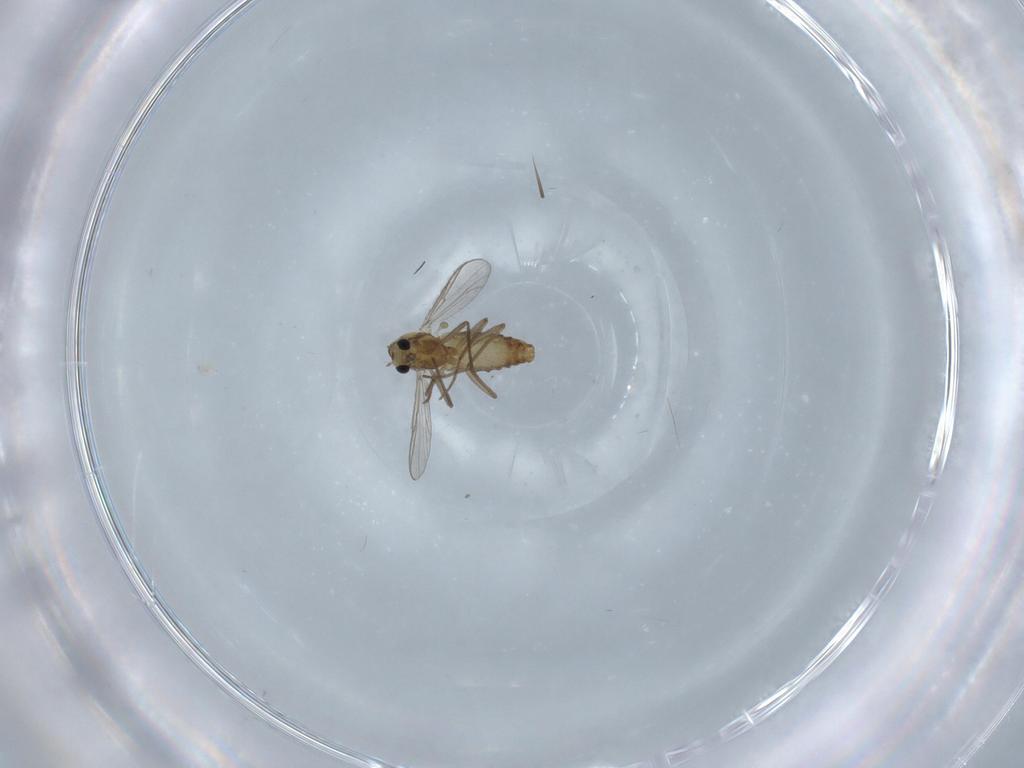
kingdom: Animalia
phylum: Arthropoda
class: Insecta
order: Diptera
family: Chironomidae
